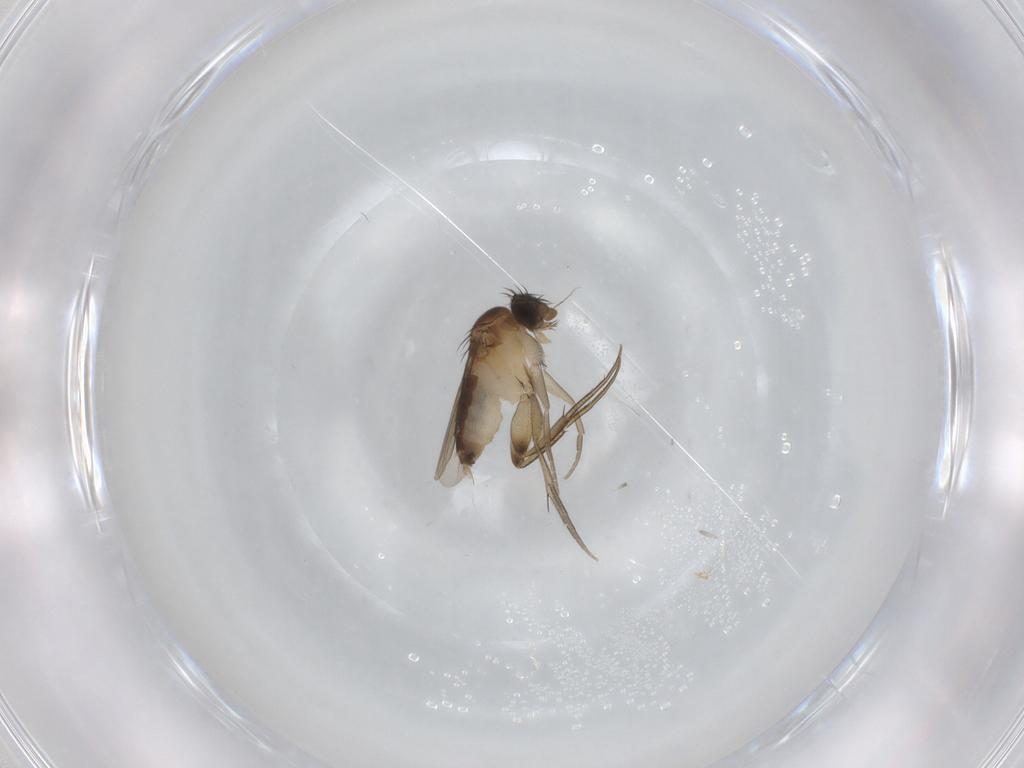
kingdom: Animalia
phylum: Arthropoda
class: Insecta
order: Diptera
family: Phoridae
